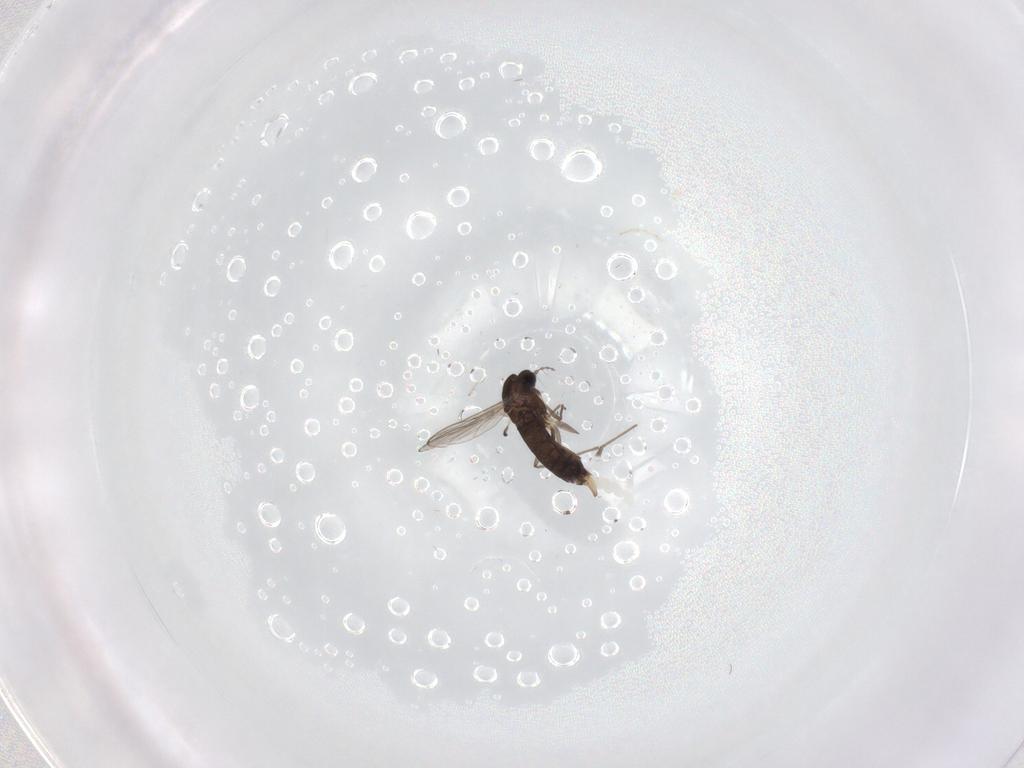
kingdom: Animalia
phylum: Arthropoda
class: Insecta
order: Diptera
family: Chironomidae
